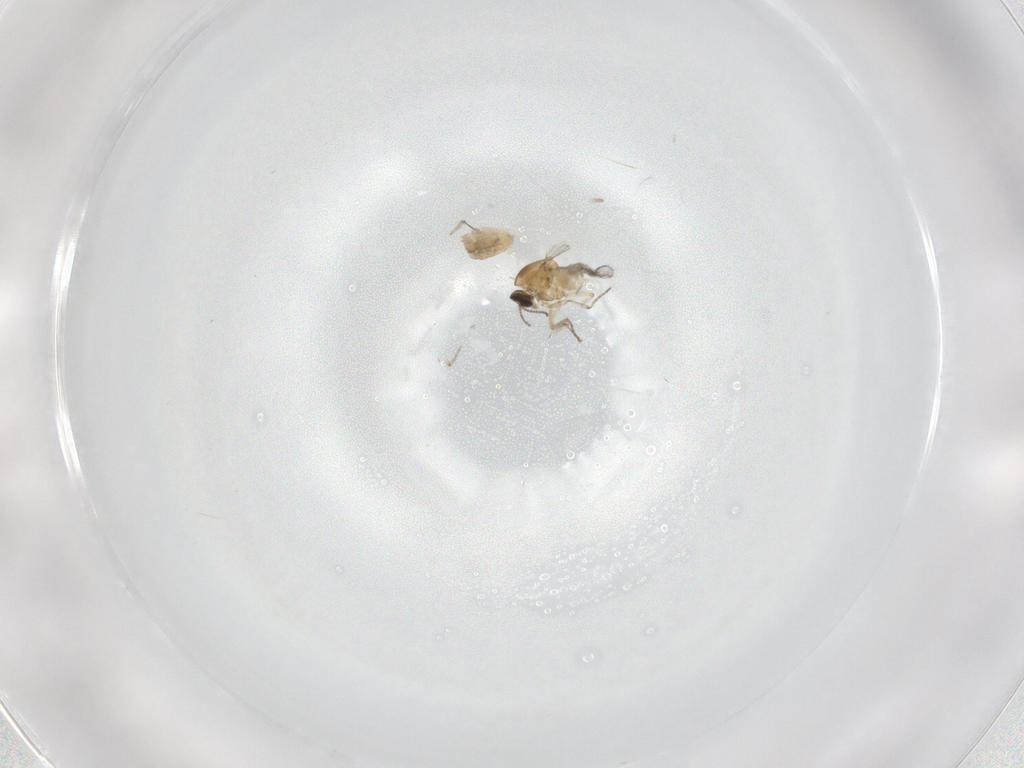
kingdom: Animalia
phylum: Arthropoda
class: Insecta
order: Diptera
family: Ceratopogonidae
